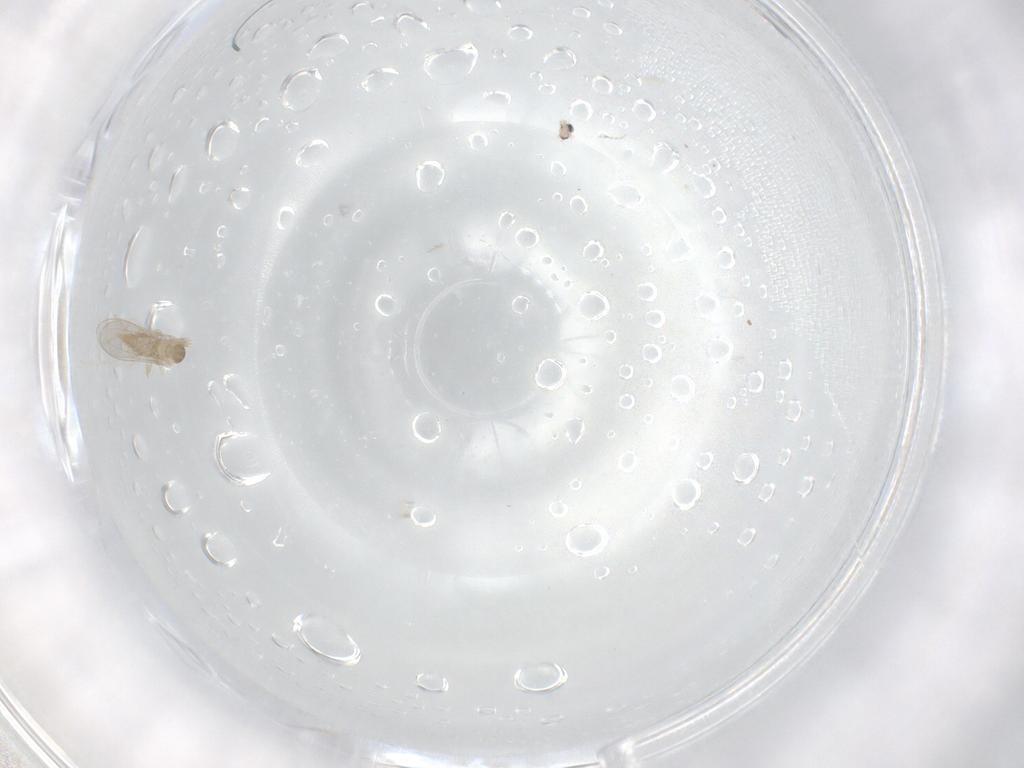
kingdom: Animalia
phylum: Arthropoda
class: Insecta
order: Diptera
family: Cecidomyiidae
